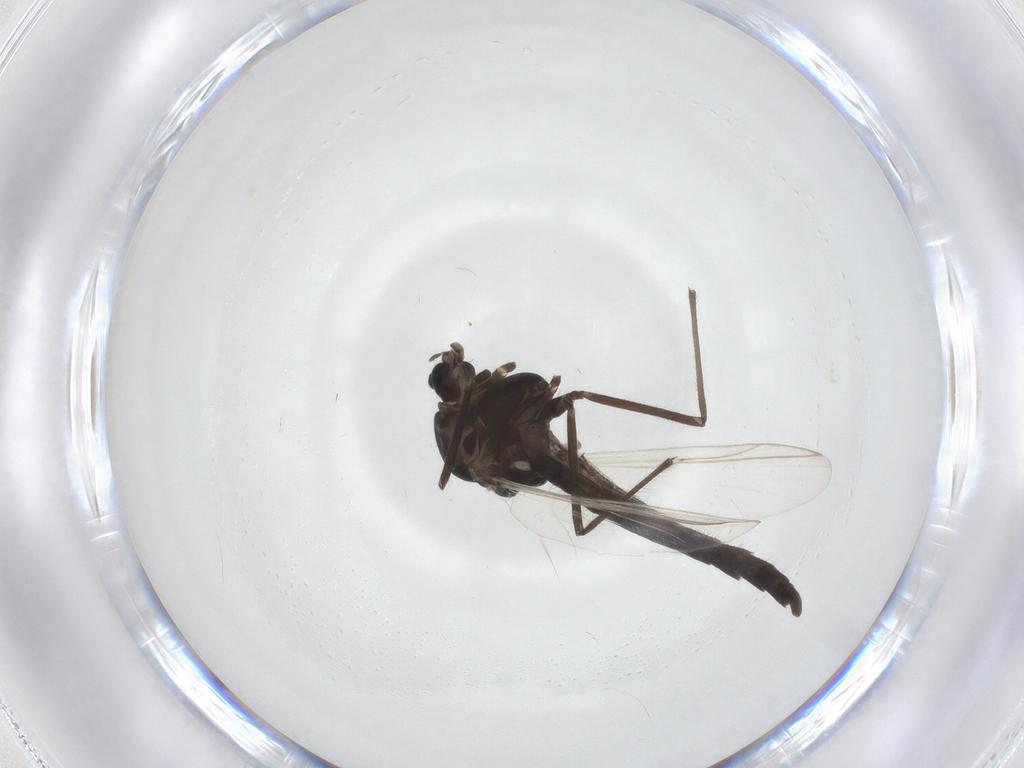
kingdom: Animalia
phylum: Arthropoda
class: Insecta
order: Diptera
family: Chironomidae
